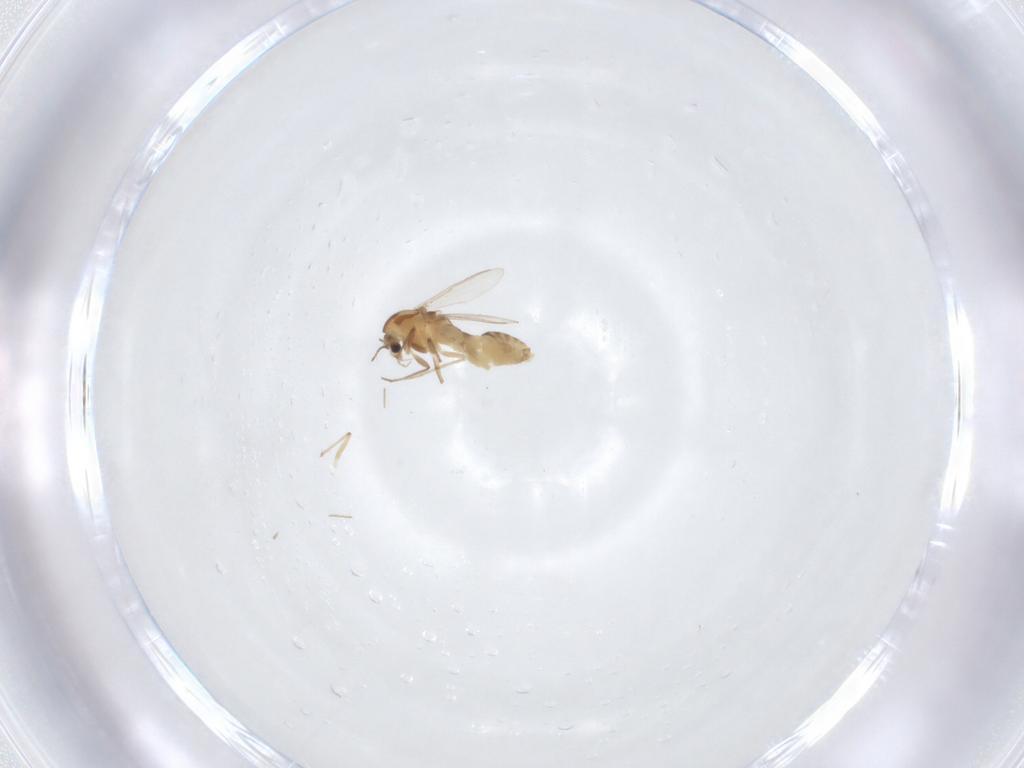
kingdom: Animalia
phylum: Arthropoda
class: Insecta
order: Diptera
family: Chironomidae
